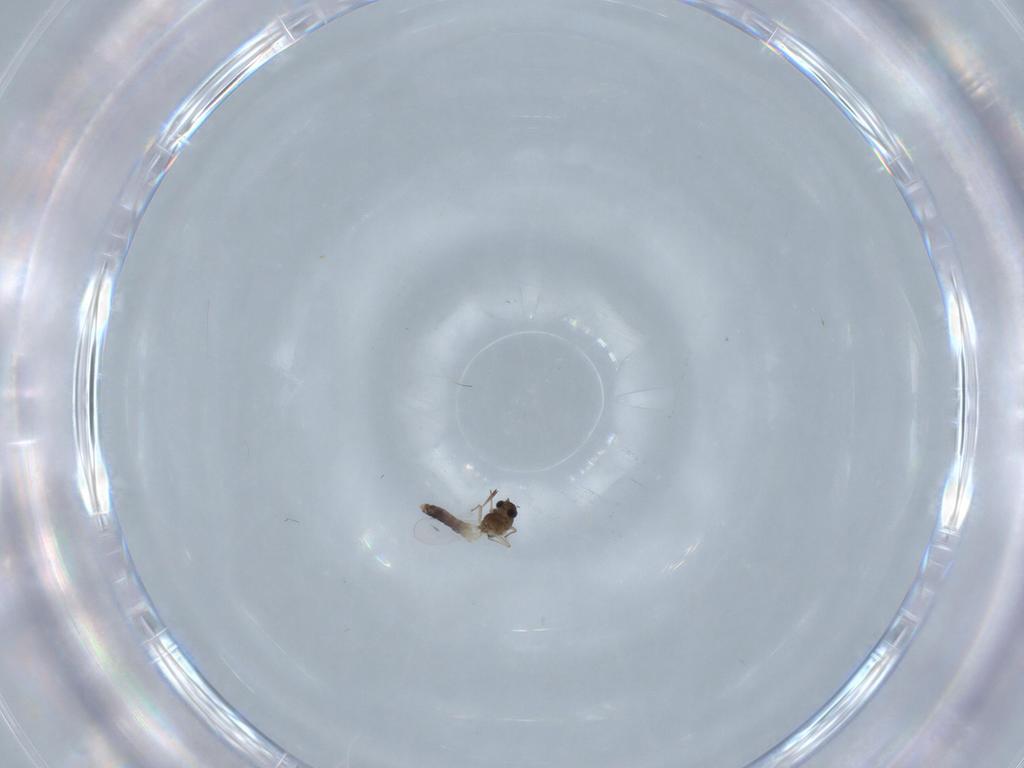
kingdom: Animalia
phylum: Arthropoda
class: Insecta
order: Diptera
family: Chironomidae
